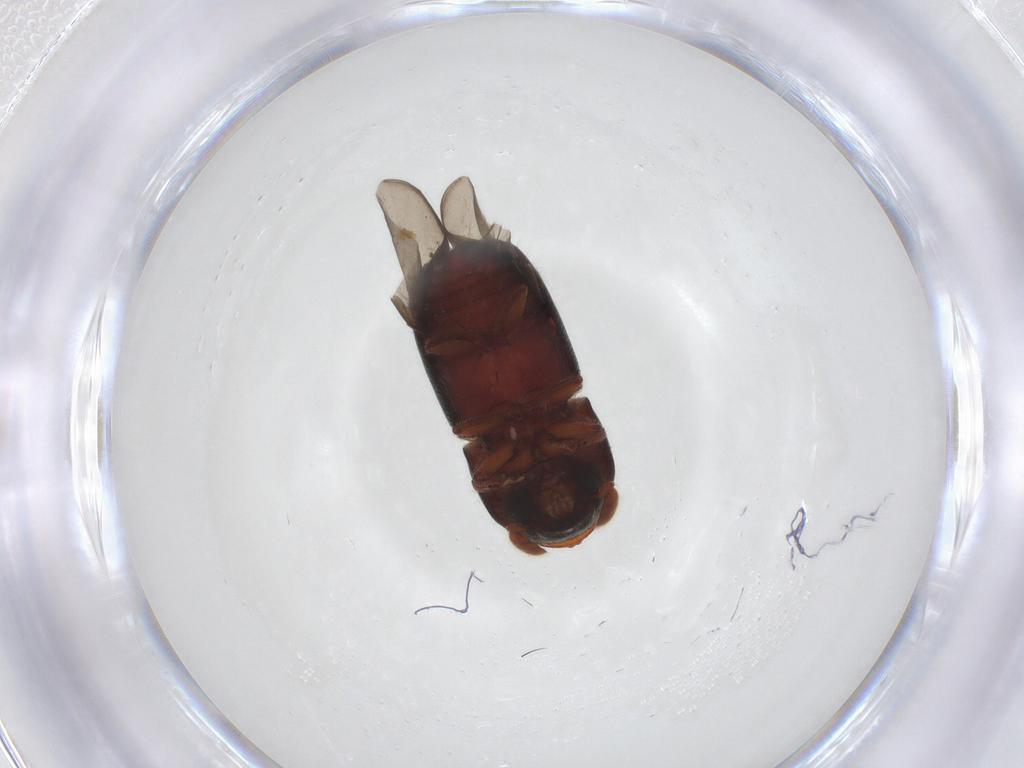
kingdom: Animalia
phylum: Arthropoda
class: Insecta
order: Coleoptera
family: Curculionidae
